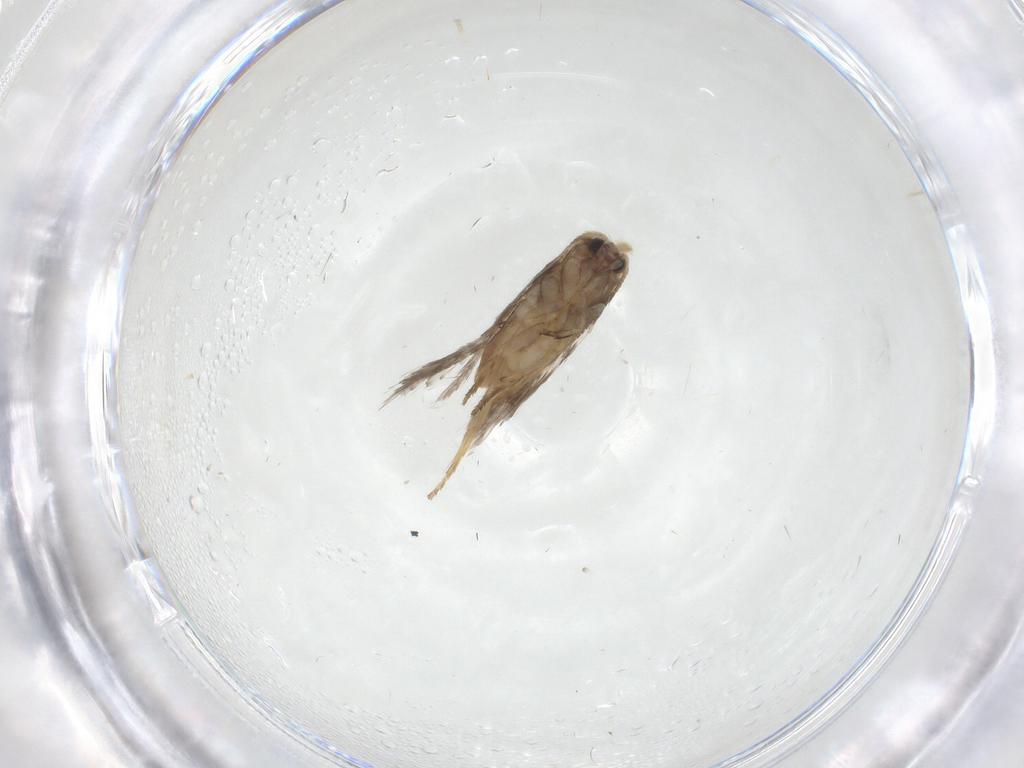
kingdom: Animalia
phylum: Arthropoda
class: Insecta
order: Lepidoptera
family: Nepticulidae
